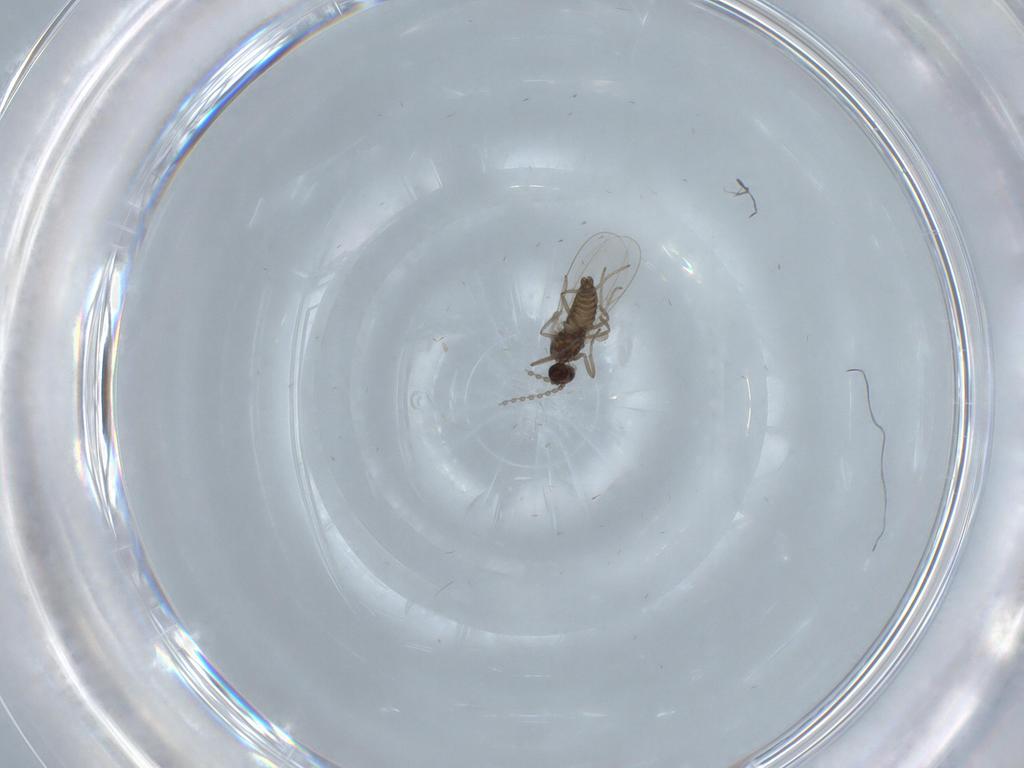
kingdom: Animalia
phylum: Arthropoda
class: Insecta
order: Diptera
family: Cecidomyiidae
